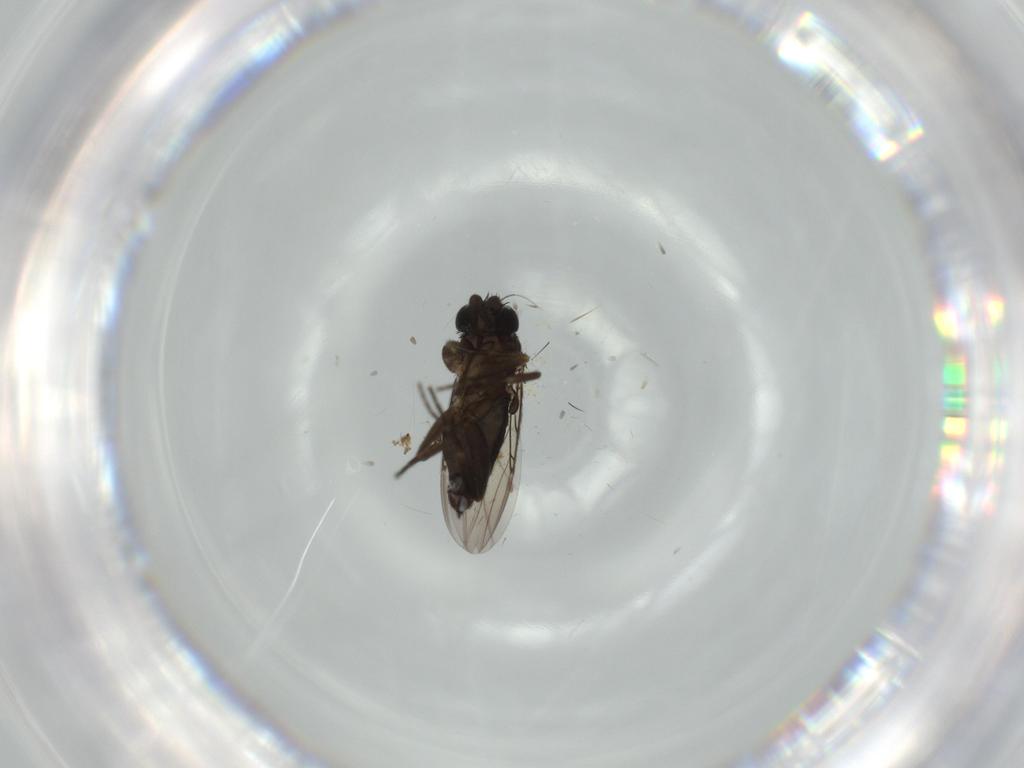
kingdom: Animalia
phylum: Arthropoda
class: Insecta
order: Diptera
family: Phoridae
